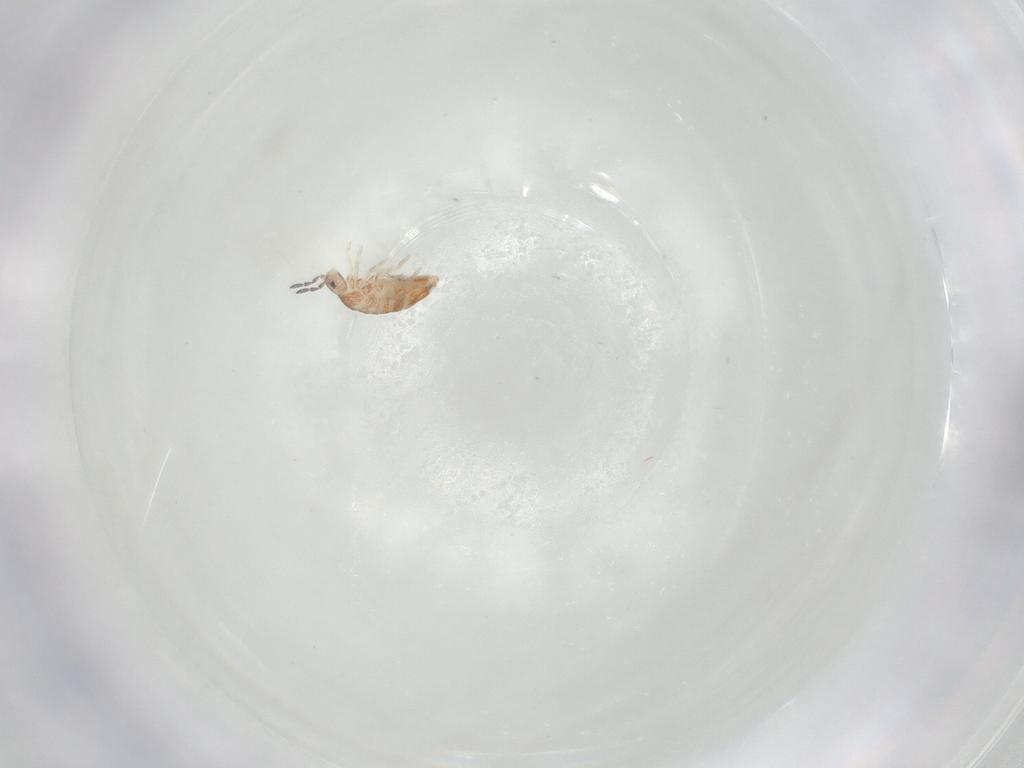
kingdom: Animalia
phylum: Arthropoda
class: Collembola
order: Entomobryomorpha
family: Entomobryidae
